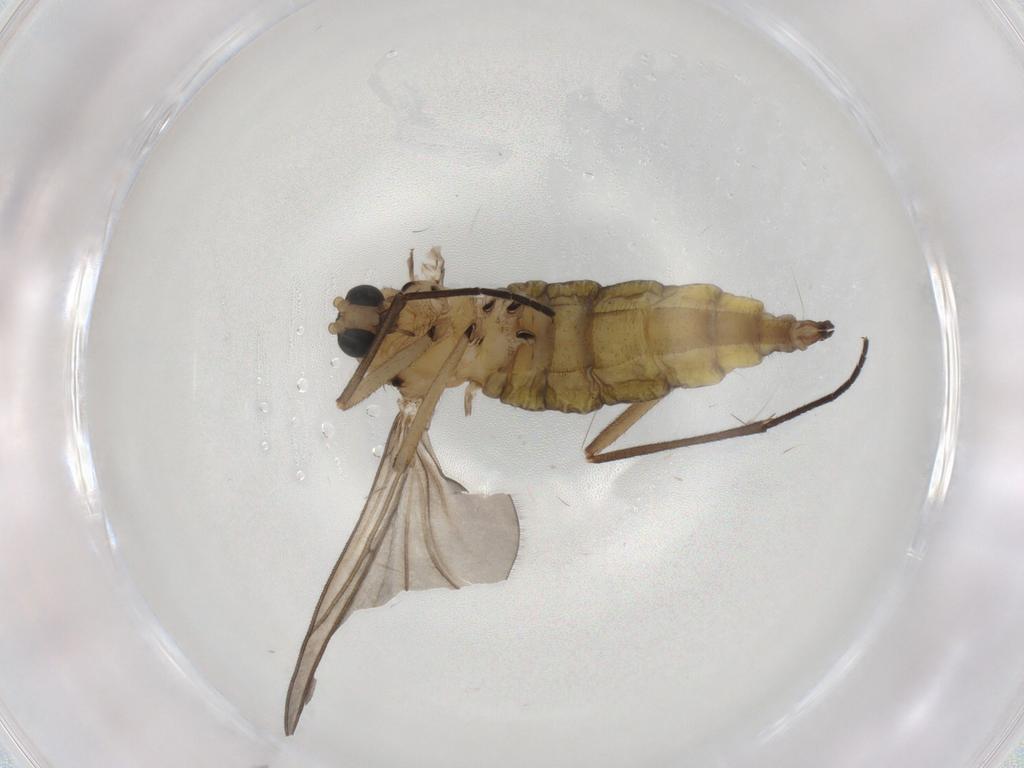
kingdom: Animalia
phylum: Arthropoda
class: Insecta
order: Diptera
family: Sciaridae
